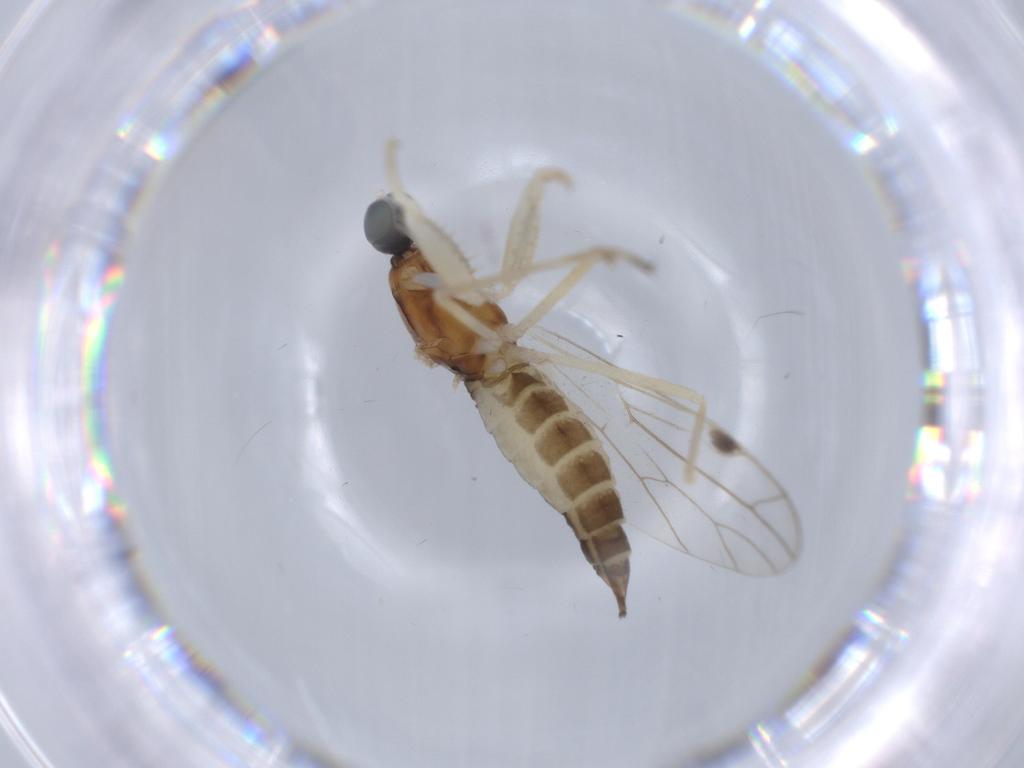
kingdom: Animalia
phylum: Arthropoda
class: Insecta
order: Diptera
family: Empididae
